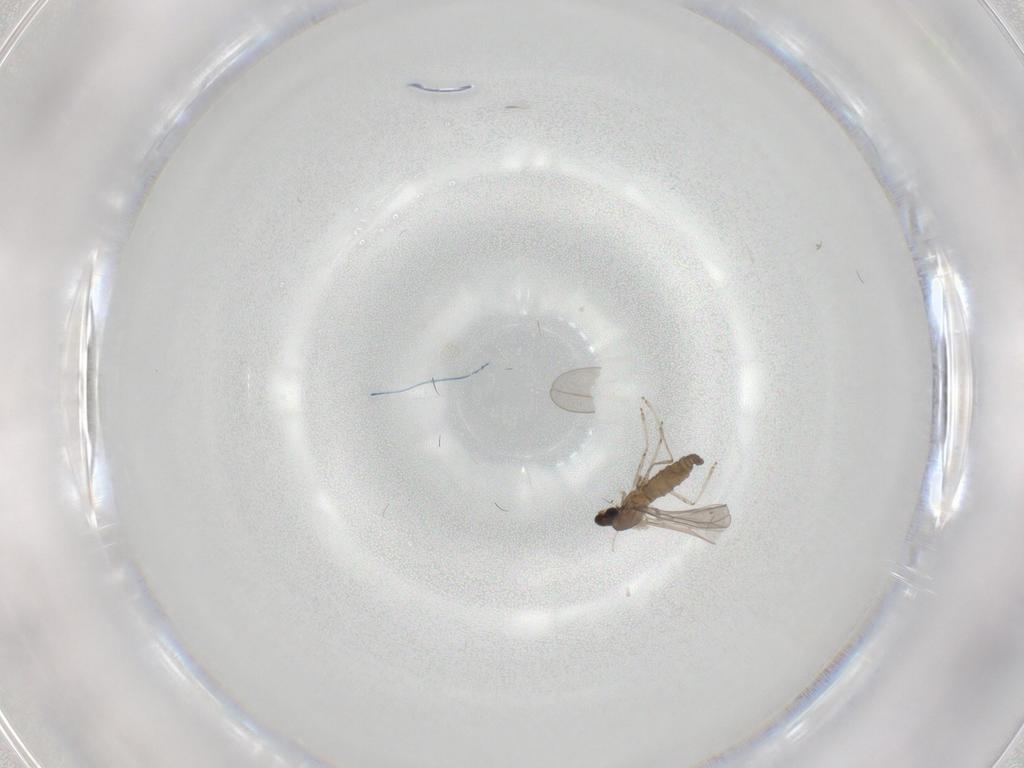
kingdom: Animalia
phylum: Arthropoda
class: Insecta
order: Diptera
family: Cecidomyiidae
